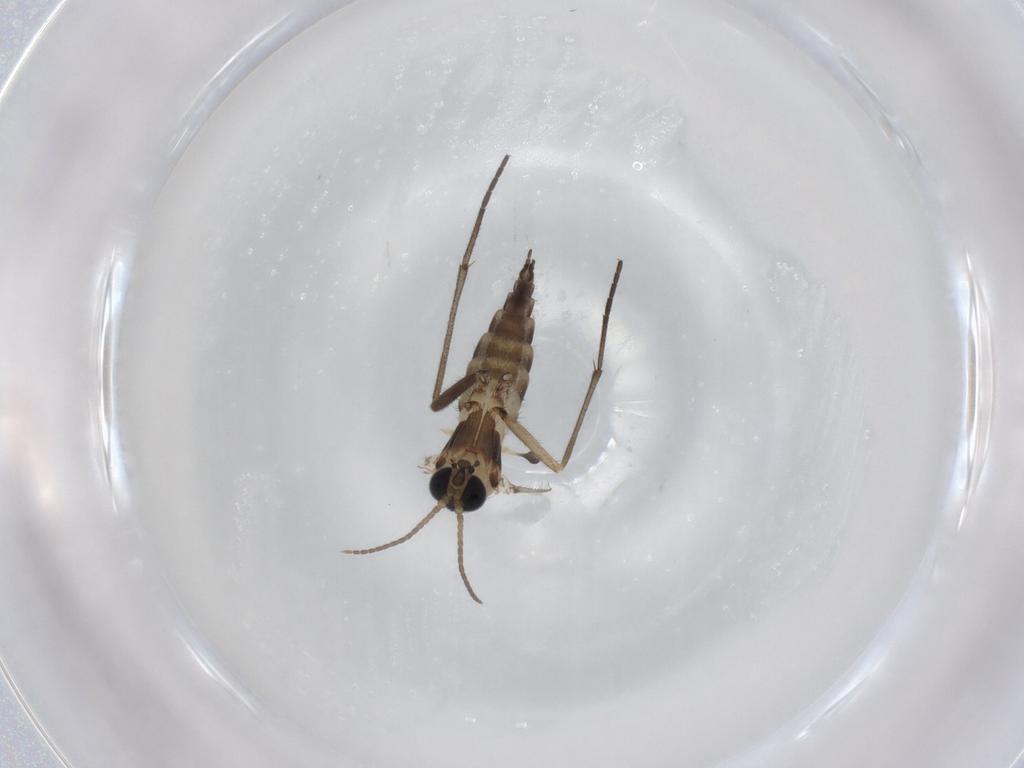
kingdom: Animalia
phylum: Arthropoda
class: Insecta
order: Diptera
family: Sciaridae
